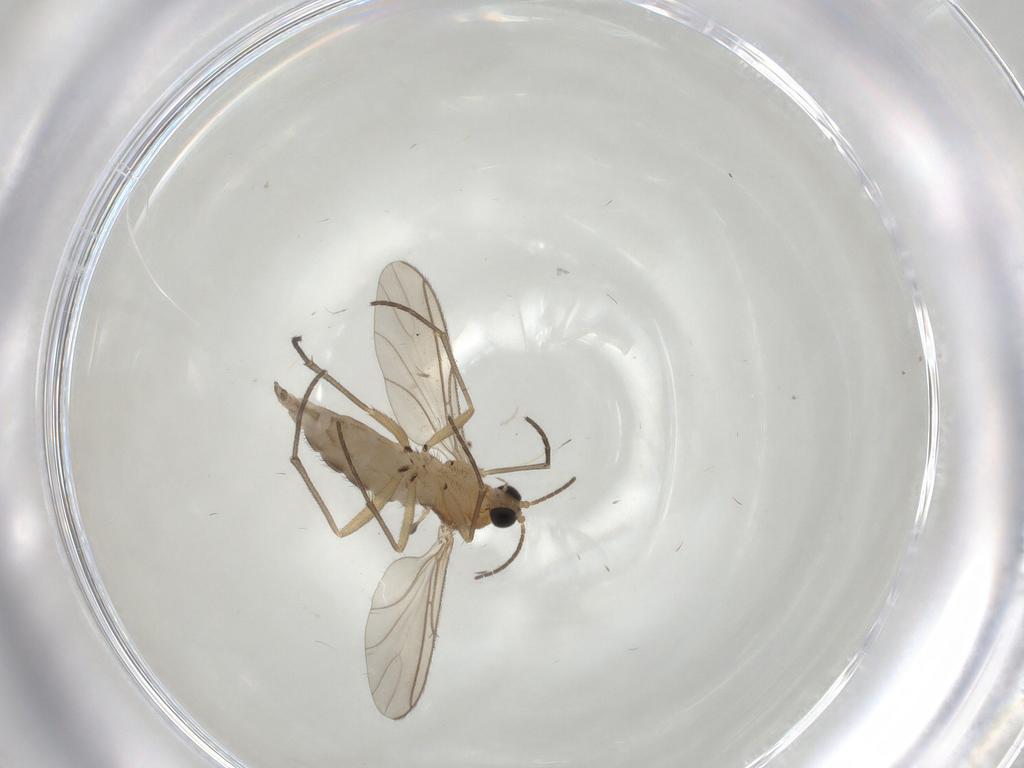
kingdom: Animalia
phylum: Arthropoda
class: Insecta
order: Diptera
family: Sciaridae
